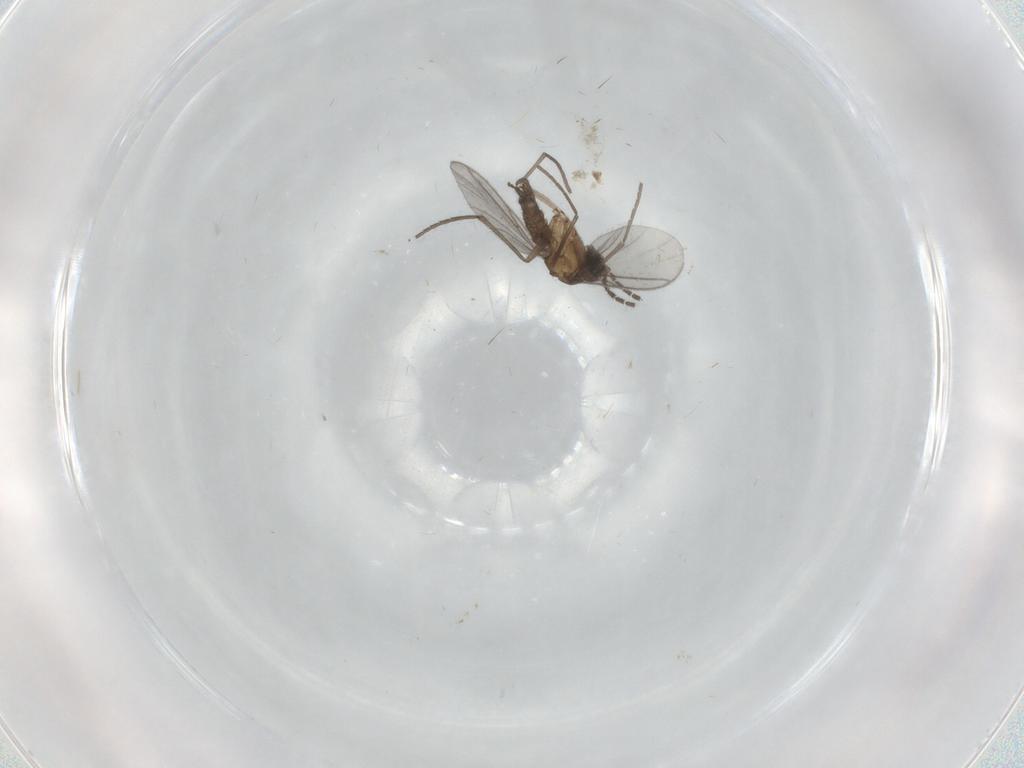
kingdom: Animalia
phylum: Arthropoda
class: Insecta
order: Diptera
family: Sciaridae
